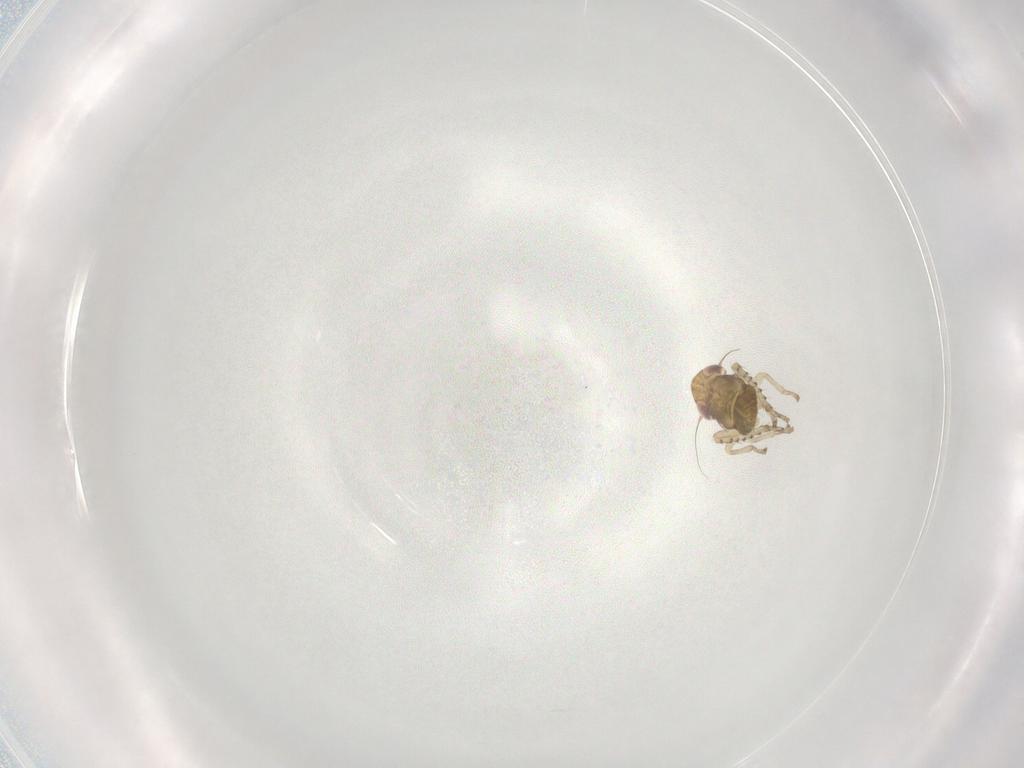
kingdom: Animalia
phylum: Arthropoda
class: Insecta
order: Hemiptera
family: Cicadellidae
